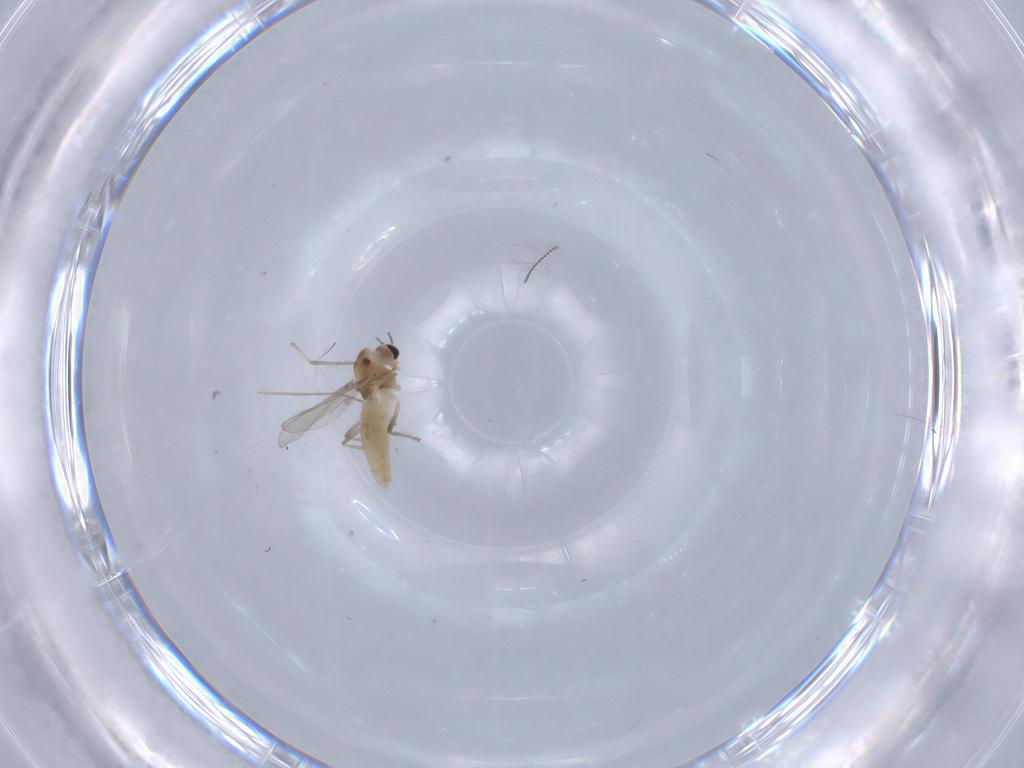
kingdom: Animalia
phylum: Arthropoda
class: Insecta
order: Diptera
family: Chironomidae
